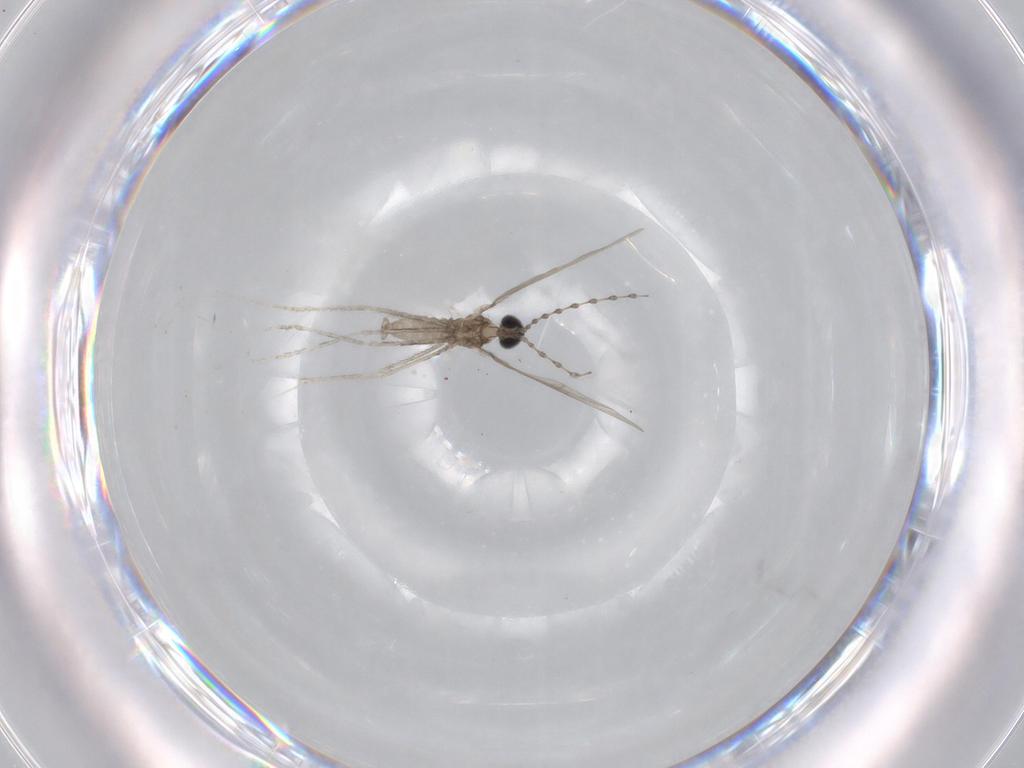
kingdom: Animalia
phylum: Arthropoda
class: Insecta
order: Diptera
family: Cecidomyiidae
